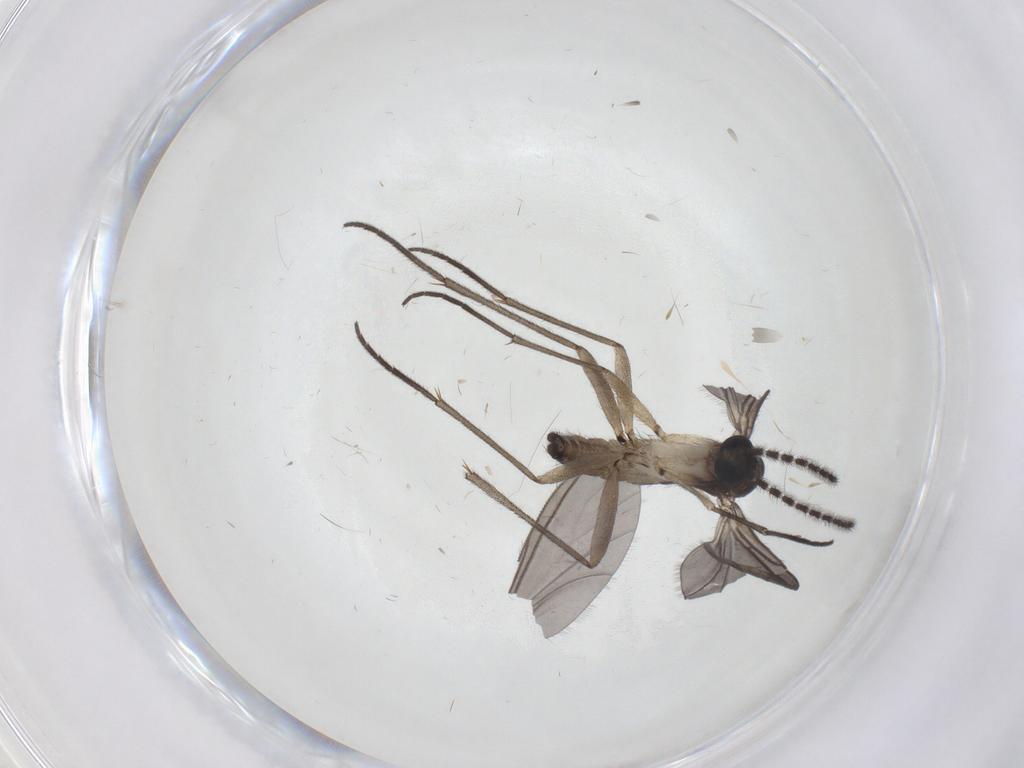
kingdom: Animalia
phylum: Arthropoda
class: Insecta
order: Diptera
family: Sciaridae
